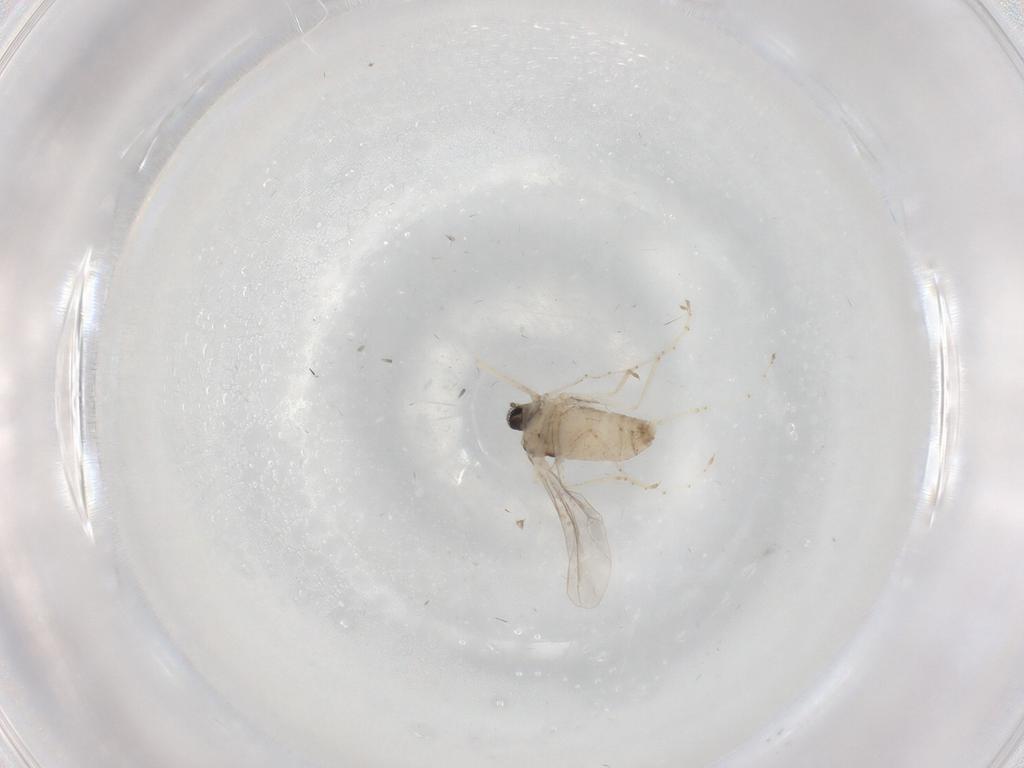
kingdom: Animalia
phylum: Arthropoda
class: Insecta
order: Diptera
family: Cecidomyiidae
